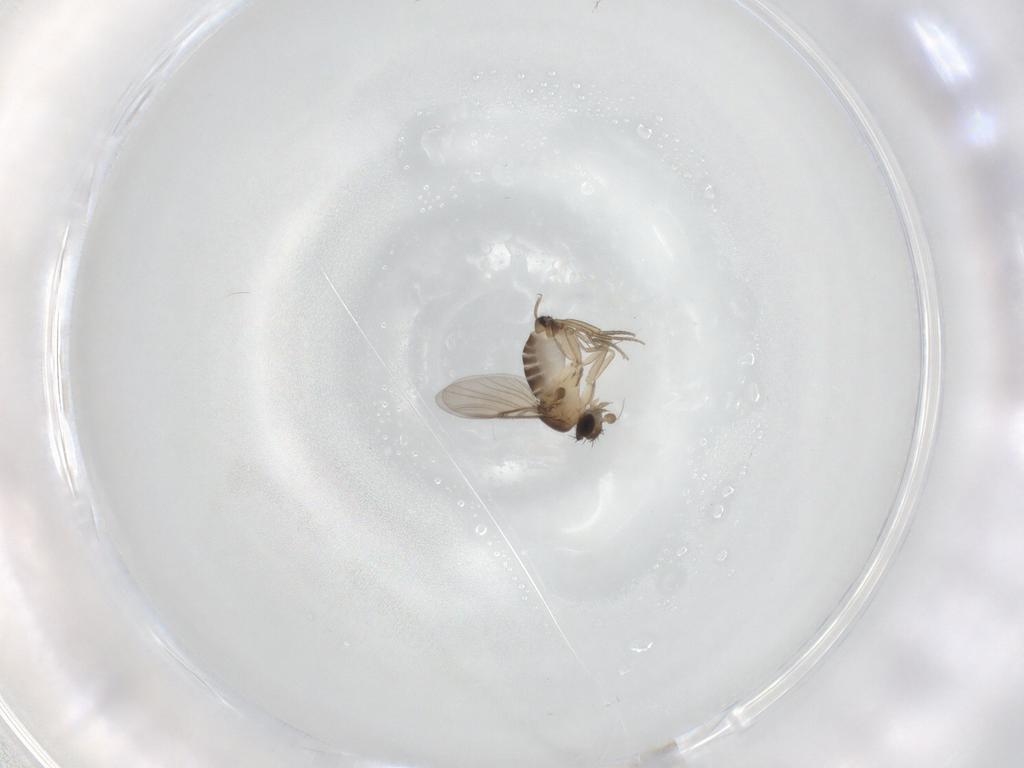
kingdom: Animalia
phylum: Arthropoda
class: Insecta
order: Diptera
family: Phoridae
